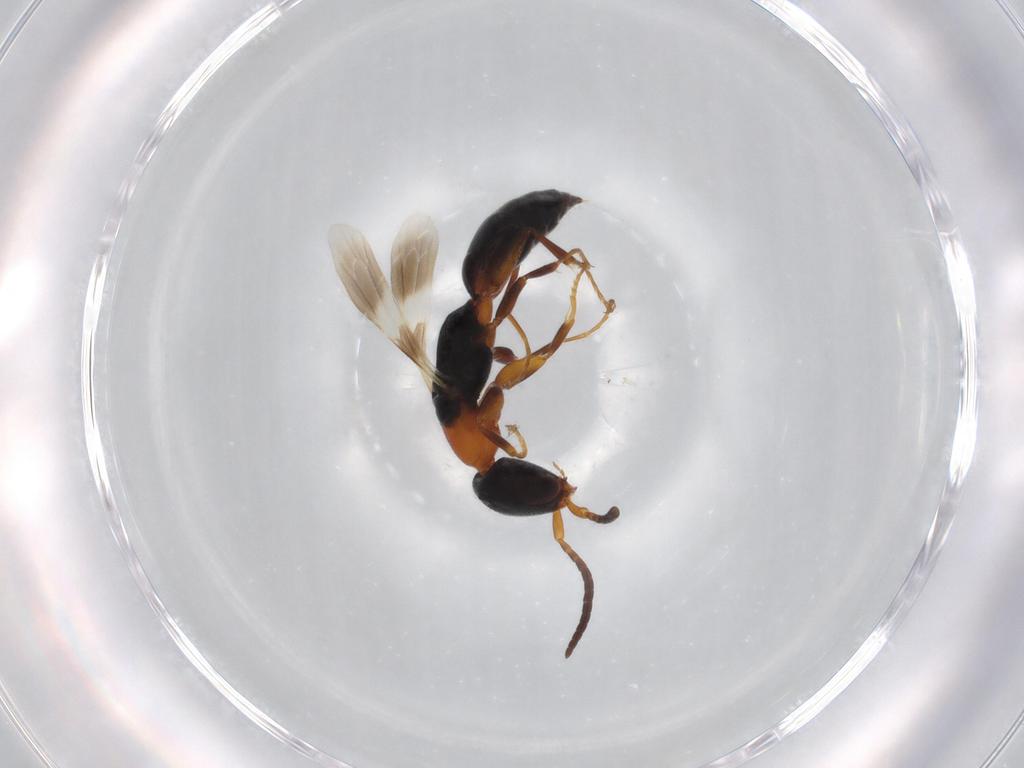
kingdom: Animalia
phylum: Arthropoda
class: Insecta
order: Hymenoptera
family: Bethylidae
